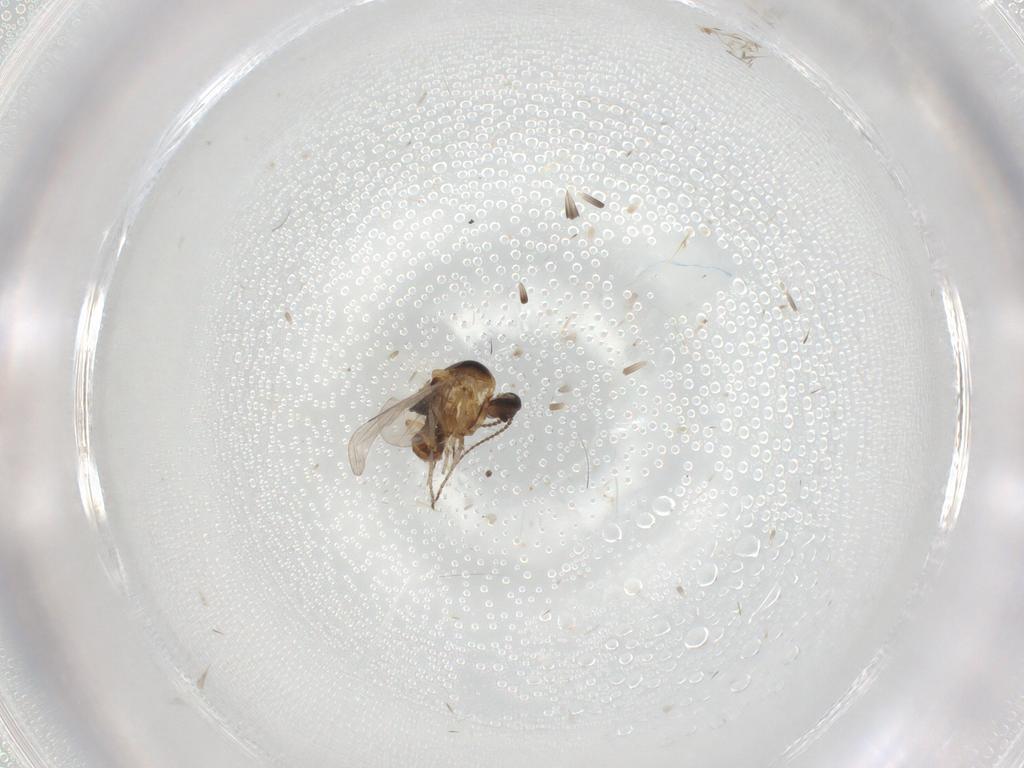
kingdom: Animalia
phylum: Arthropoda
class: Insecta
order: Diptera
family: Ceratopogonidae
